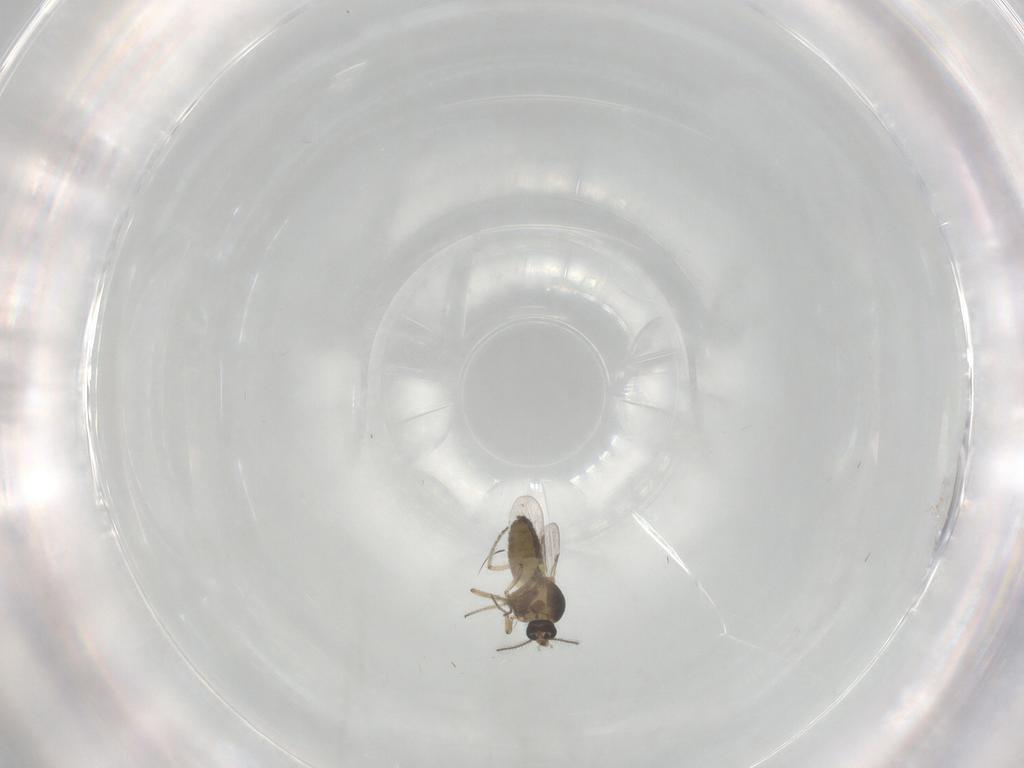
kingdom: Animalia
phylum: Arthropoda
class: Insecta
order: Diptera
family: Ceratopogonidae
